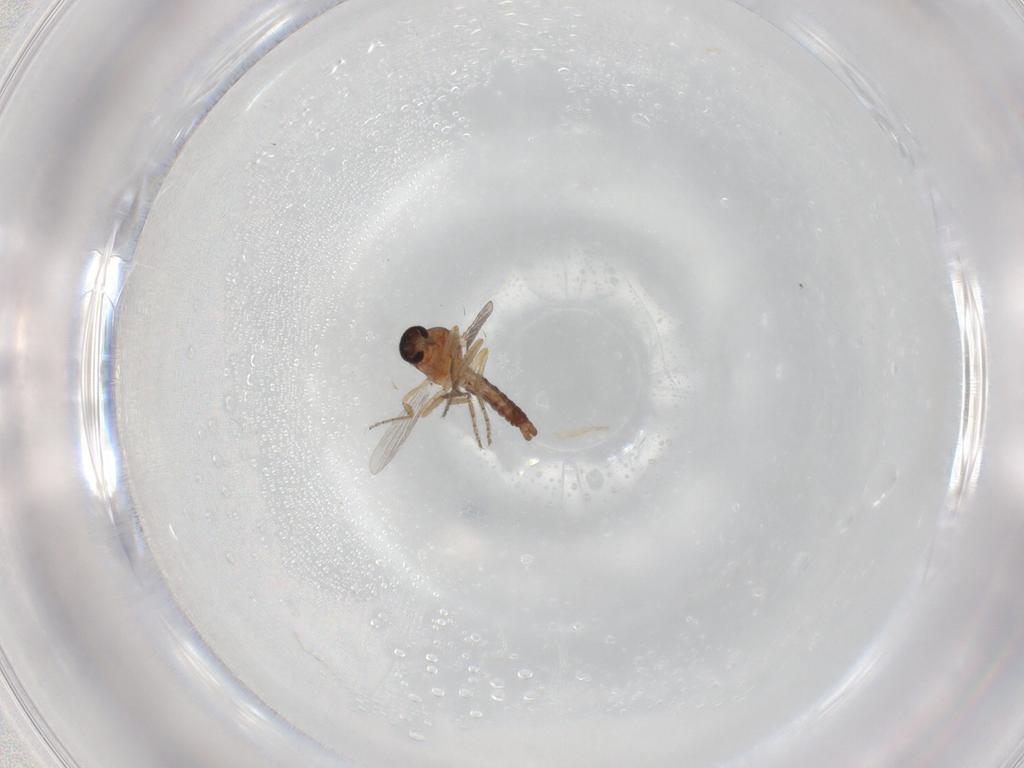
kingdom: Animalia
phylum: Arthropoda
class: Insecta
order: Diptera
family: Ceratopogonidae
